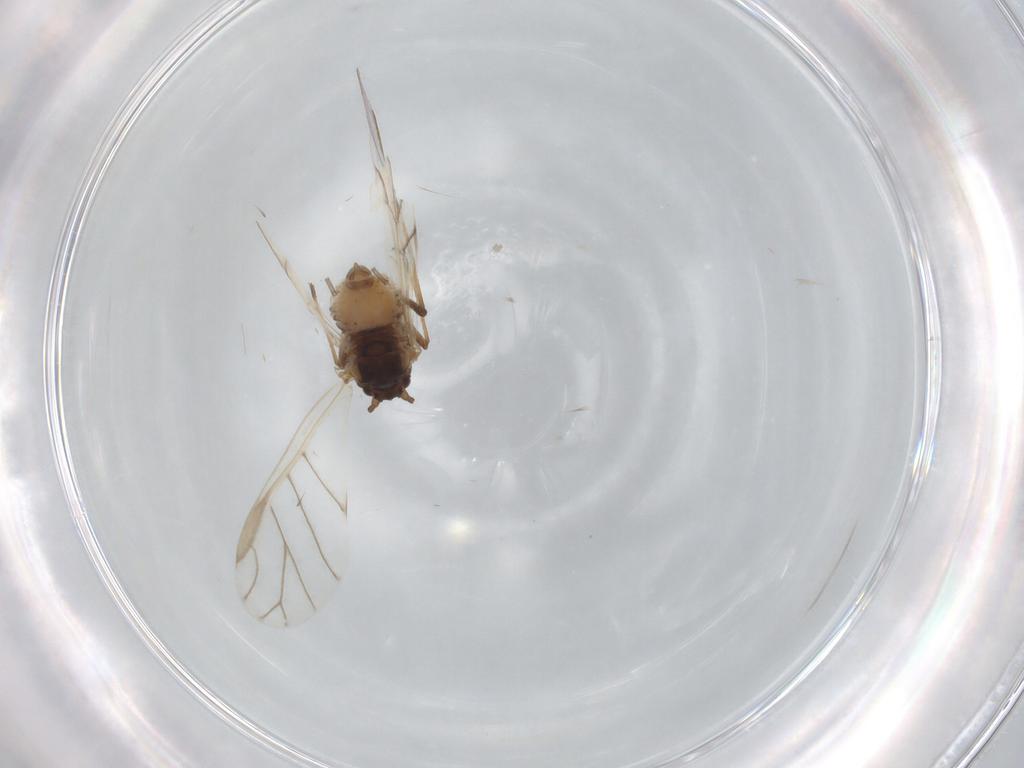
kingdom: Animalia
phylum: Arthropoda
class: Insecta
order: Hemiptera
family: Aphididae
